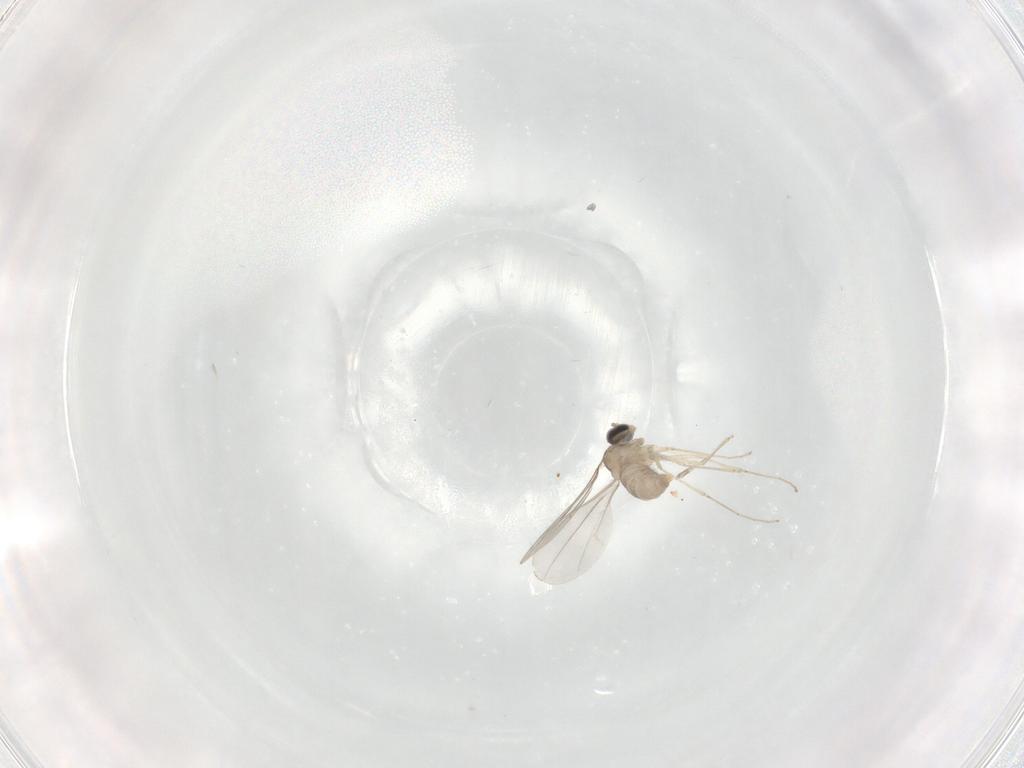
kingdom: Animalia
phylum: Arthropoda
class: Insecta
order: Diptera
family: Cecidomyiidae
